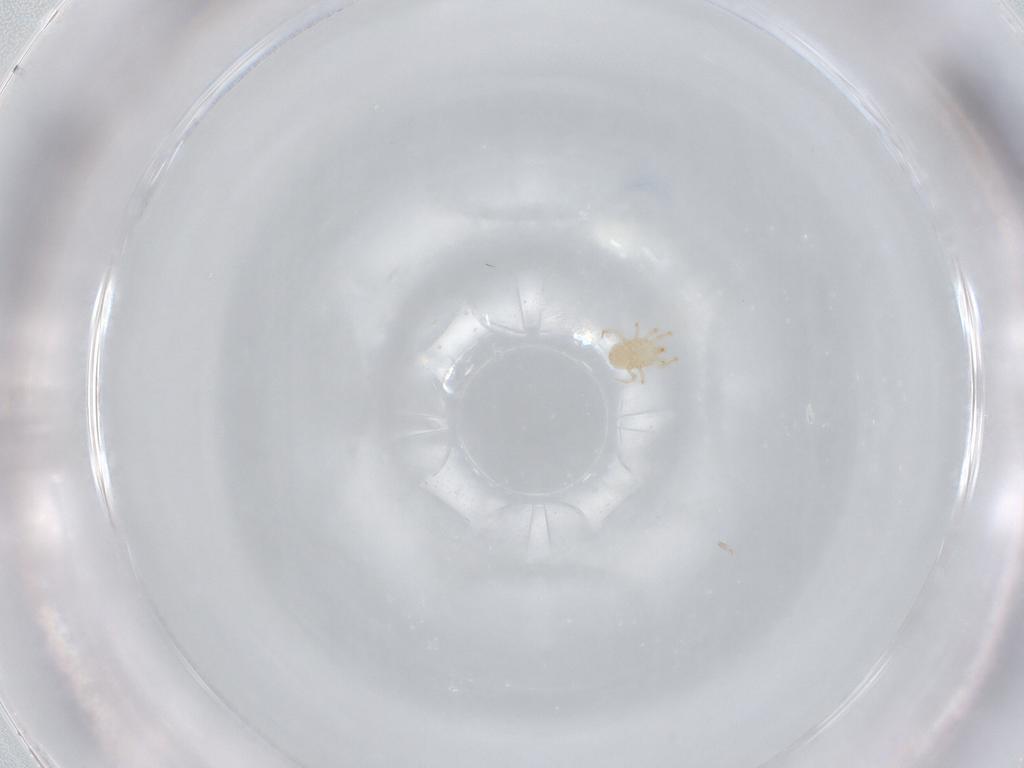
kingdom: Animalia
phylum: Arthropoda
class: Arachnida
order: Mesostigmata
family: Blattisociidae
